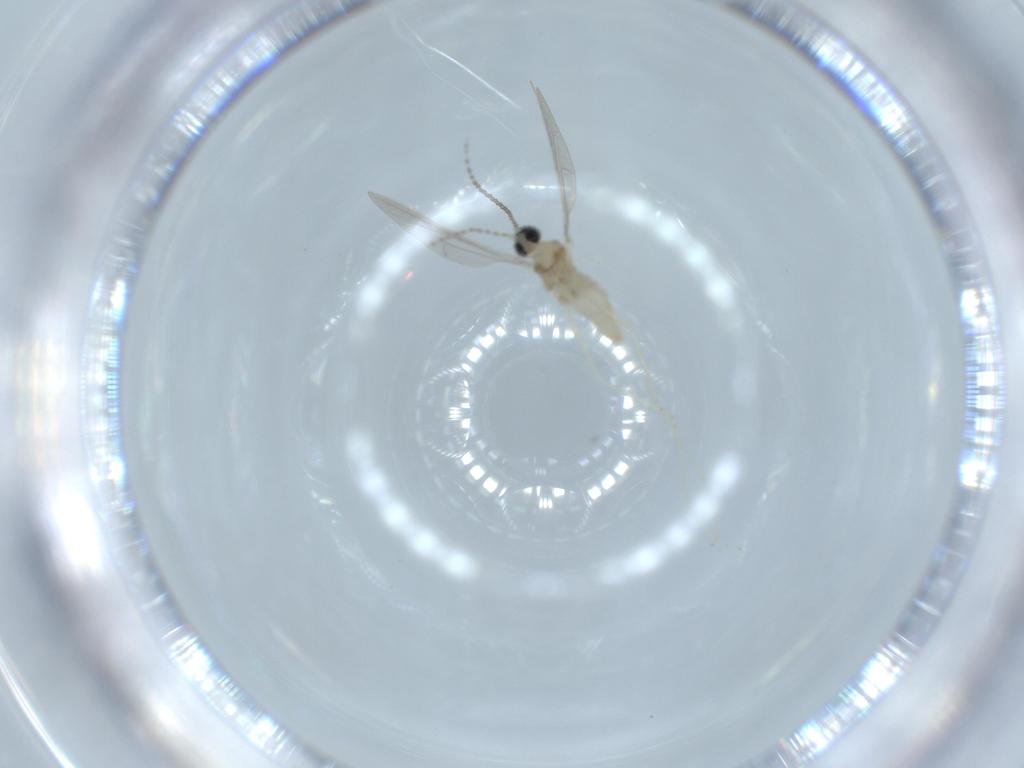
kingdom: Animalia
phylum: Arthropoda
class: Insecta
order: Diptera
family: Cecidomyiidae
